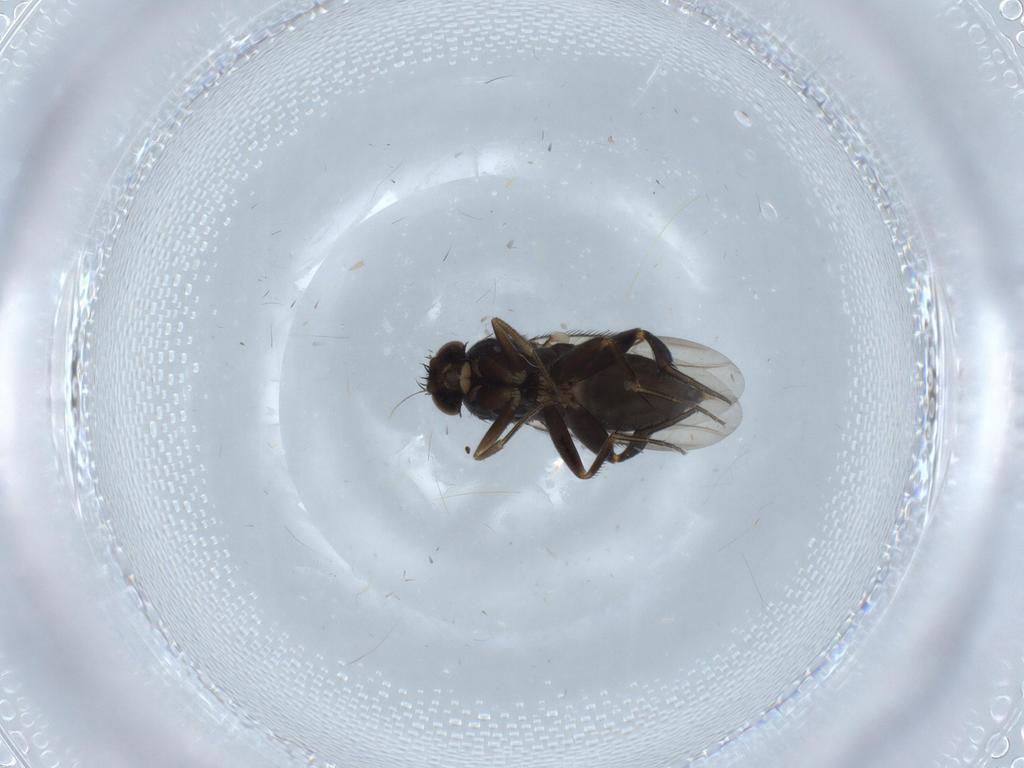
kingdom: Animalia
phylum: Arthropoda
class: Insecta
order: Diptera
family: Phoridae
